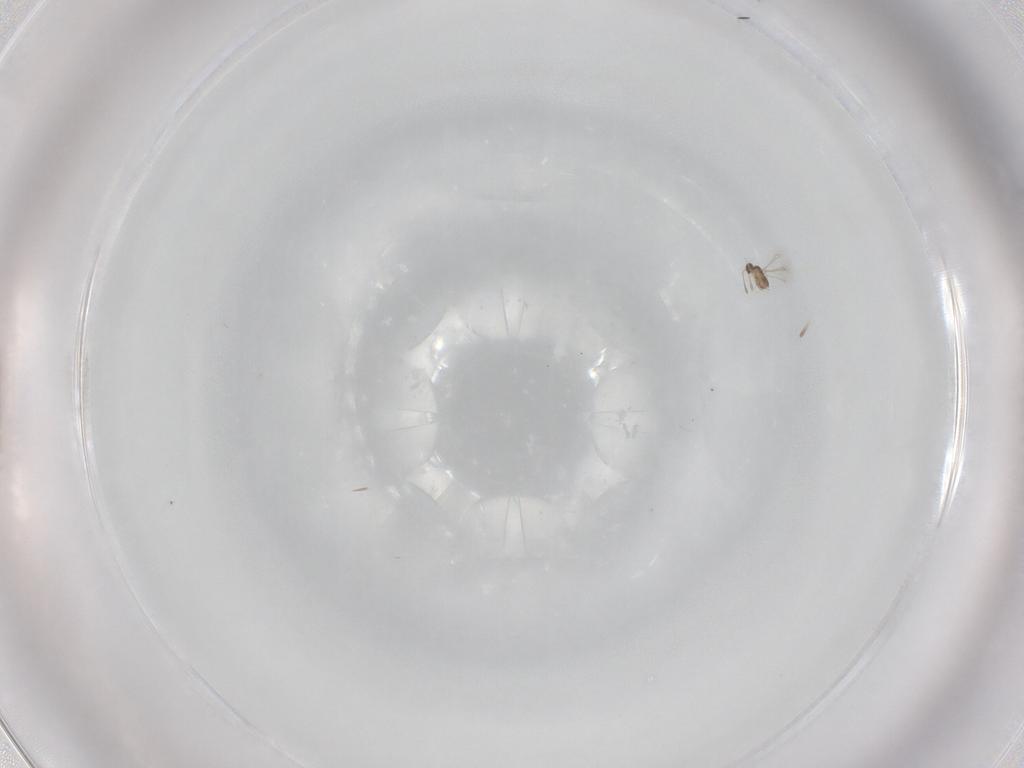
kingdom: Animalia
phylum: Arthropoda
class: Insecta
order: Hymenoptera
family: Mymaridae
